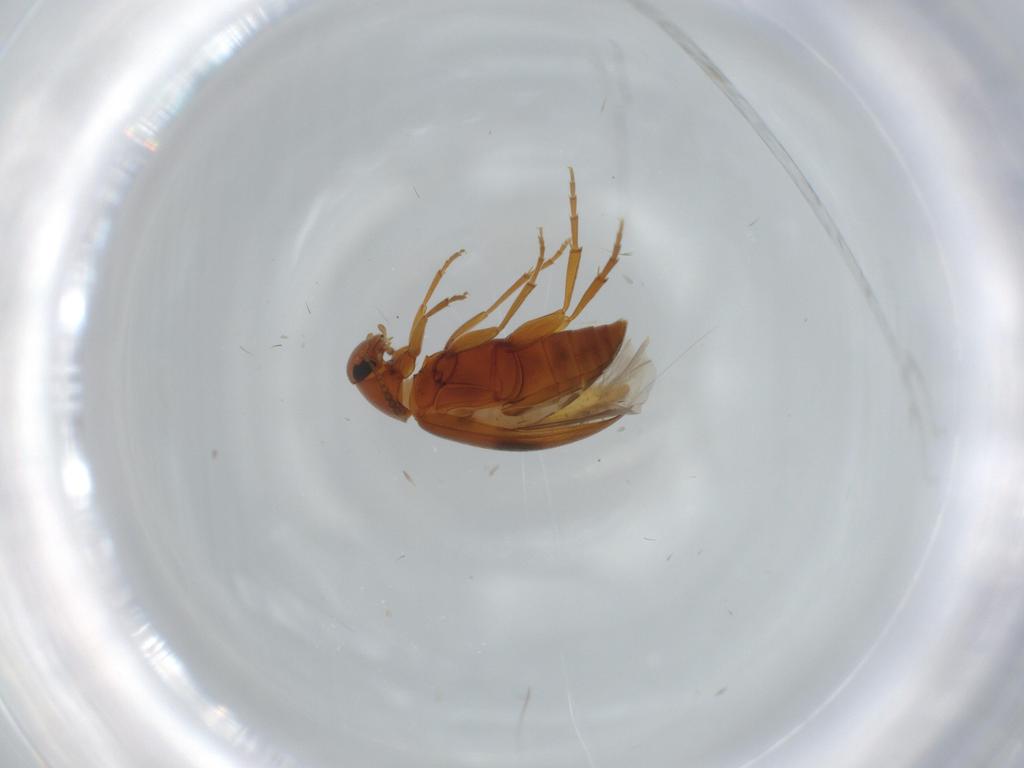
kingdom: Animalia
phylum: Arthropoda
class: Insecta
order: Coleoptera
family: Scraptiidae
